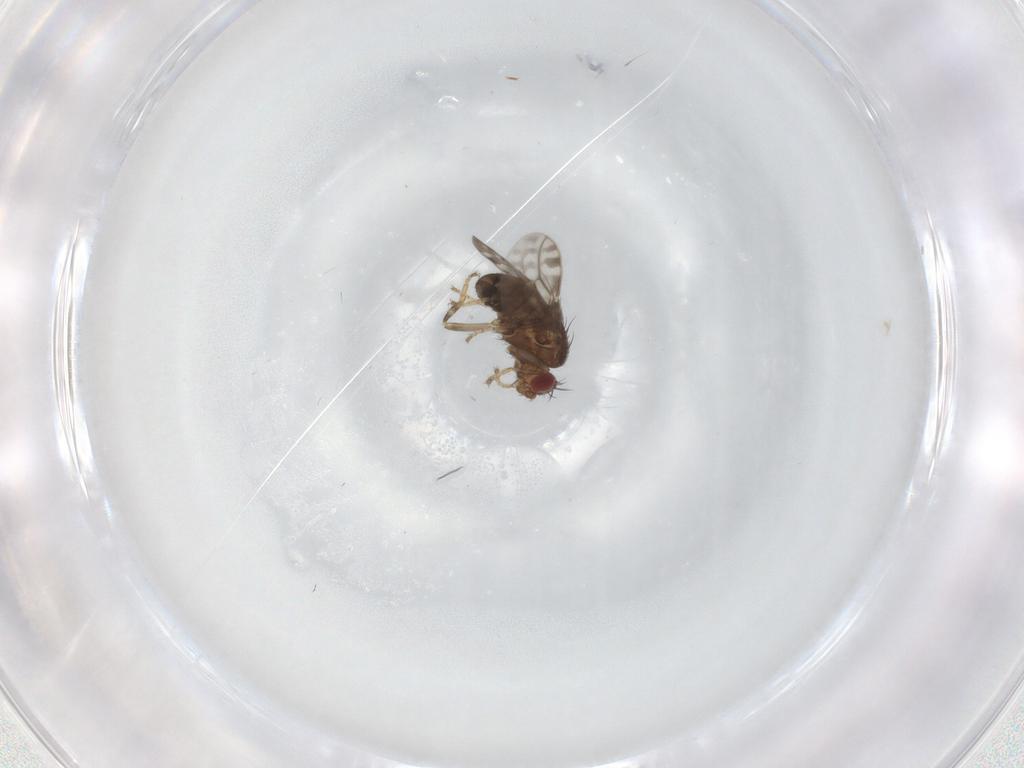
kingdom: Animalia
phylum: Arthropoda
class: Insecta
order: Diptera
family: Sphaeroceridae
